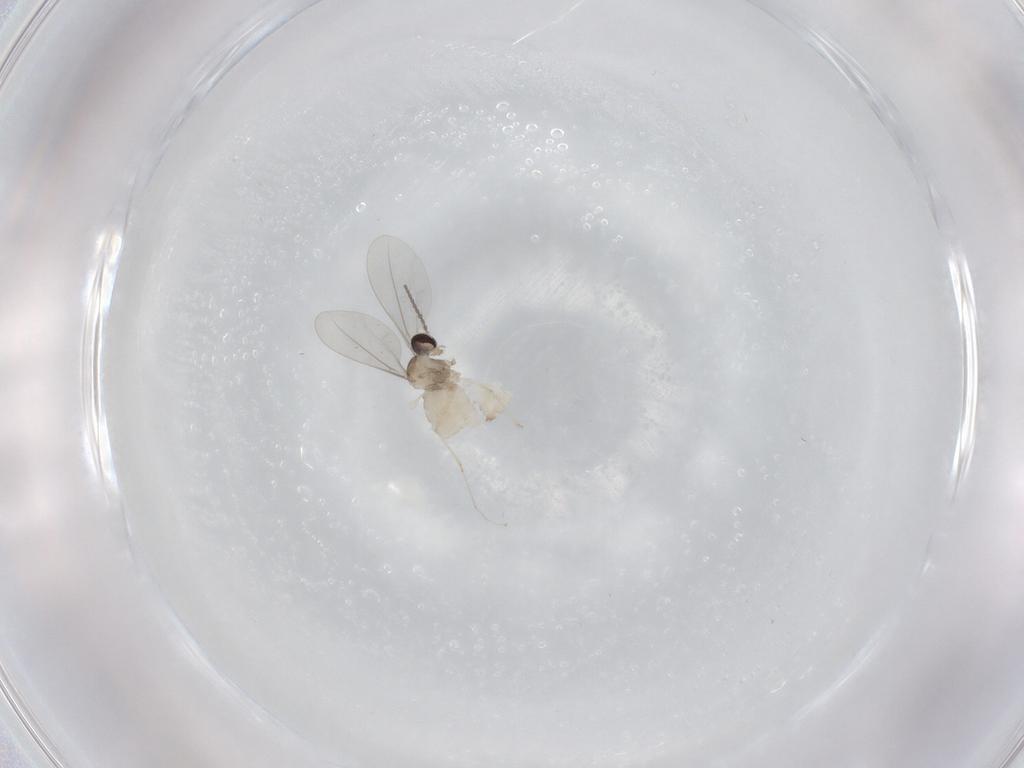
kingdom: Animalia
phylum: Arthropoda
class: Insecta
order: Diptera
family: Cecidomyiidae
